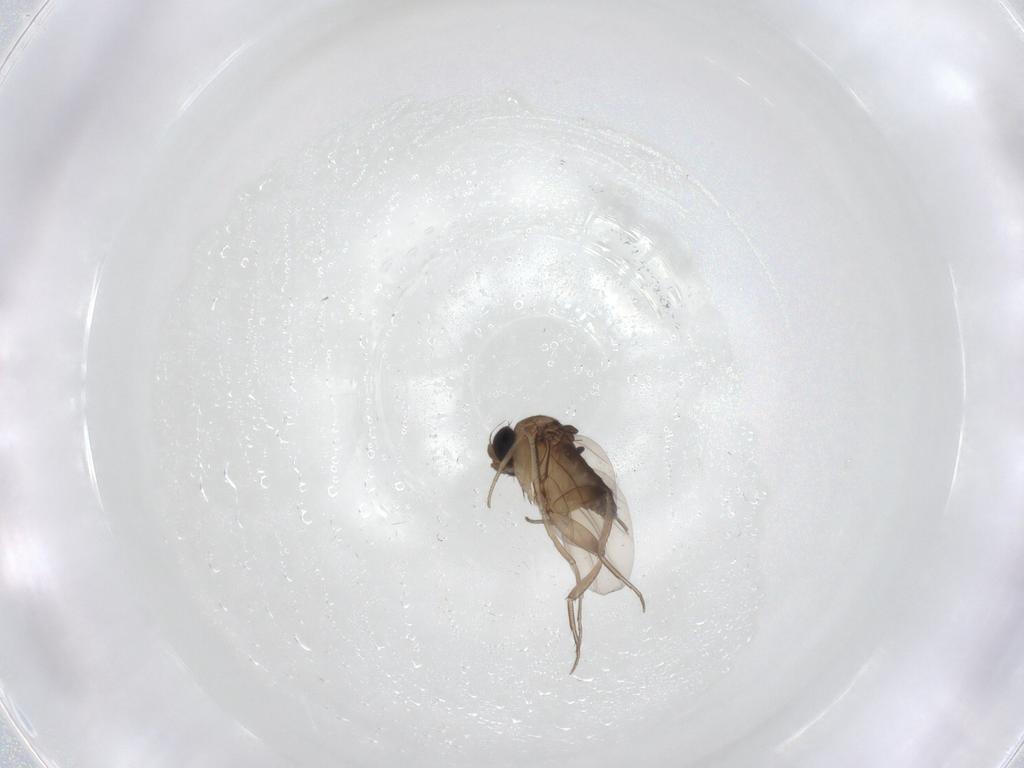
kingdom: Animalia
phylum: Arthropoda
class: Insecta
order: Diptera
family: Phoridae
